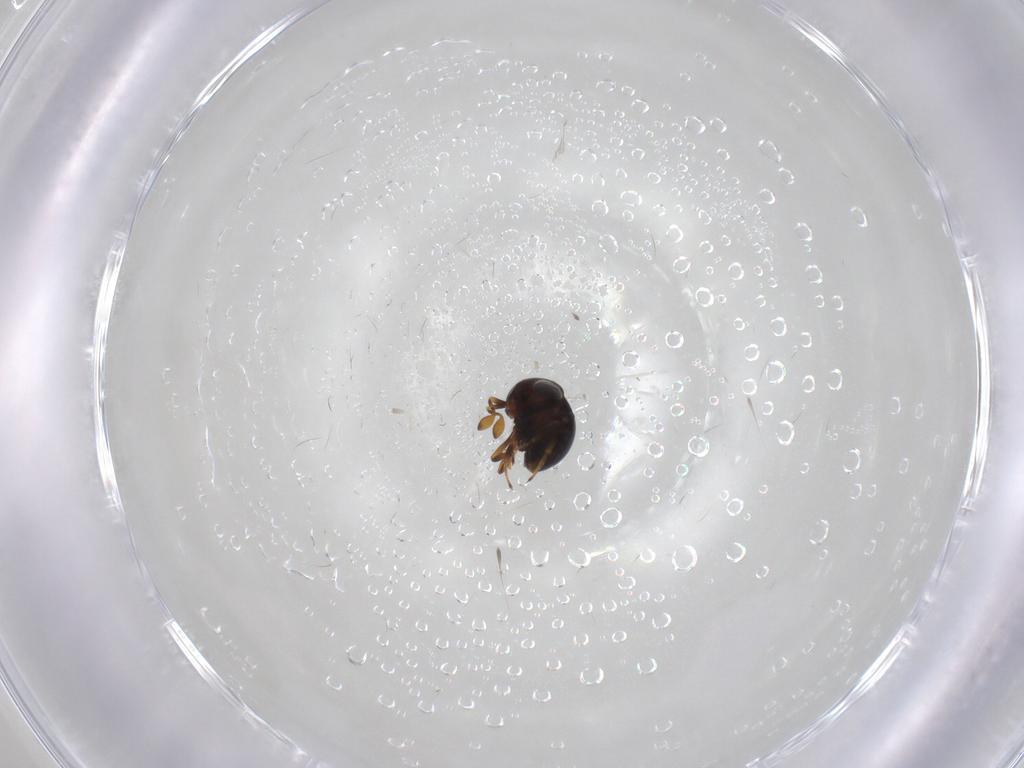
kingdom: Animalia
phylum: Arthropoda
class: Insecta
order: Hymenoptera
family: Scelionidae
